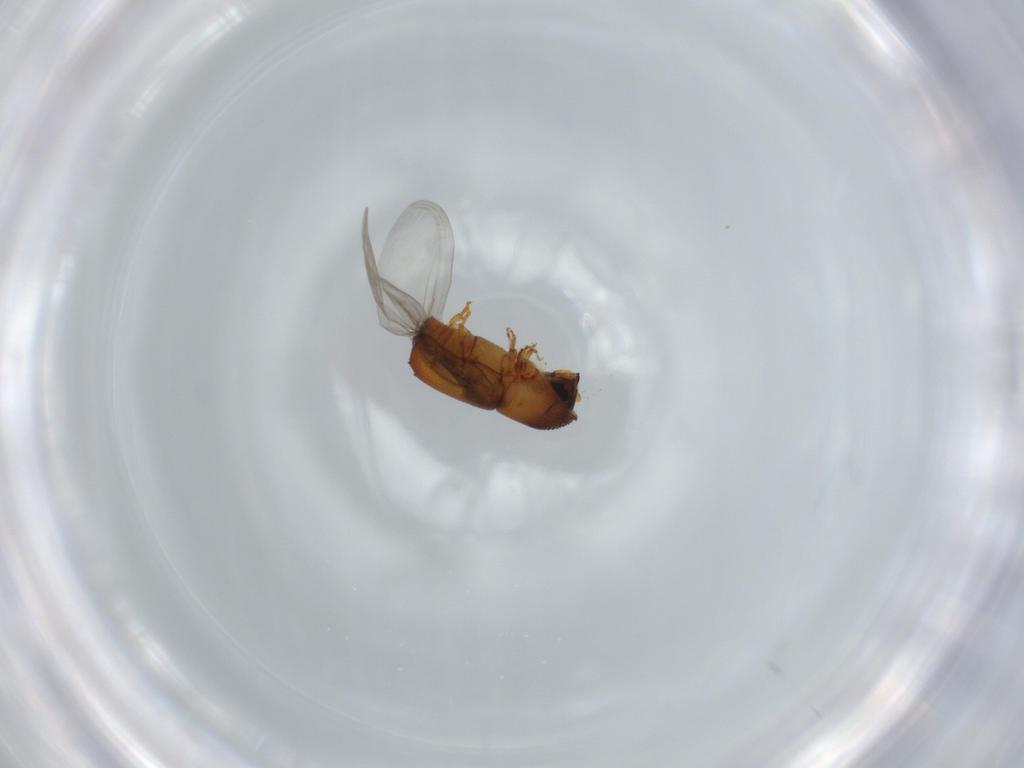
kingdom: Animalia
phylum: Arthropoda
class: Insecta
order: Coleoptera
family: Curculionidae
